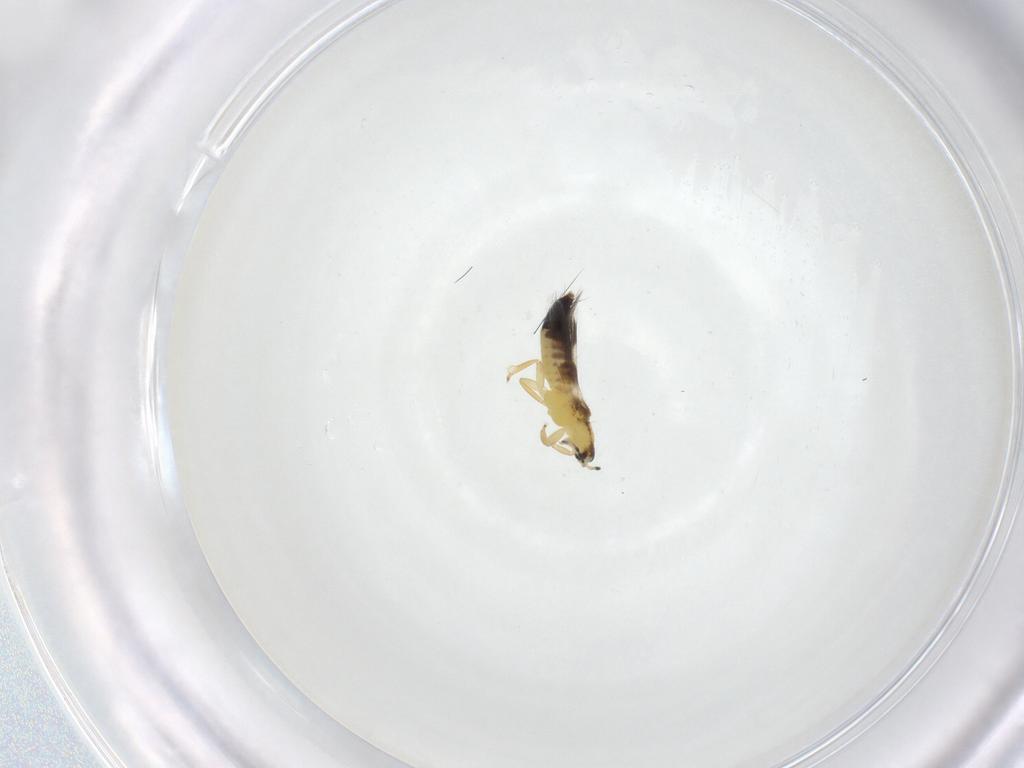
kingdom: Animalia
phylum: Arthropoda
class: Insecta
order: Thysanoptera
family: Aeolothripidae
